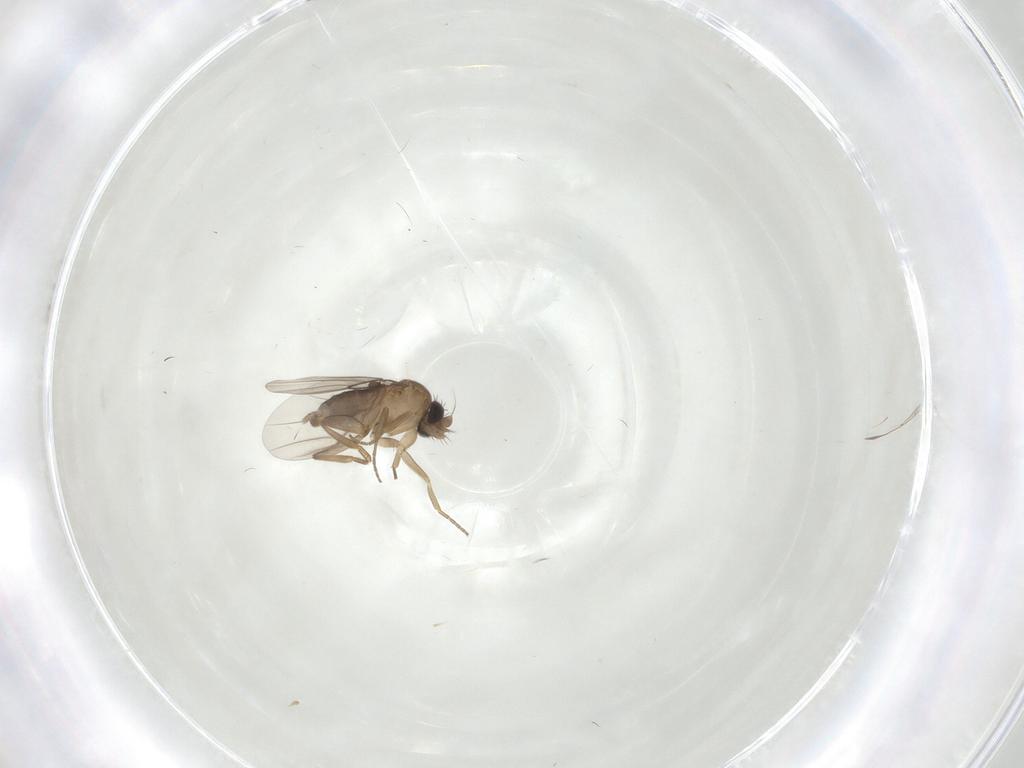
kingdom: Animalia
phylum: Arthropoda
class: Insecta
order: Diptera
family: Phoridae
